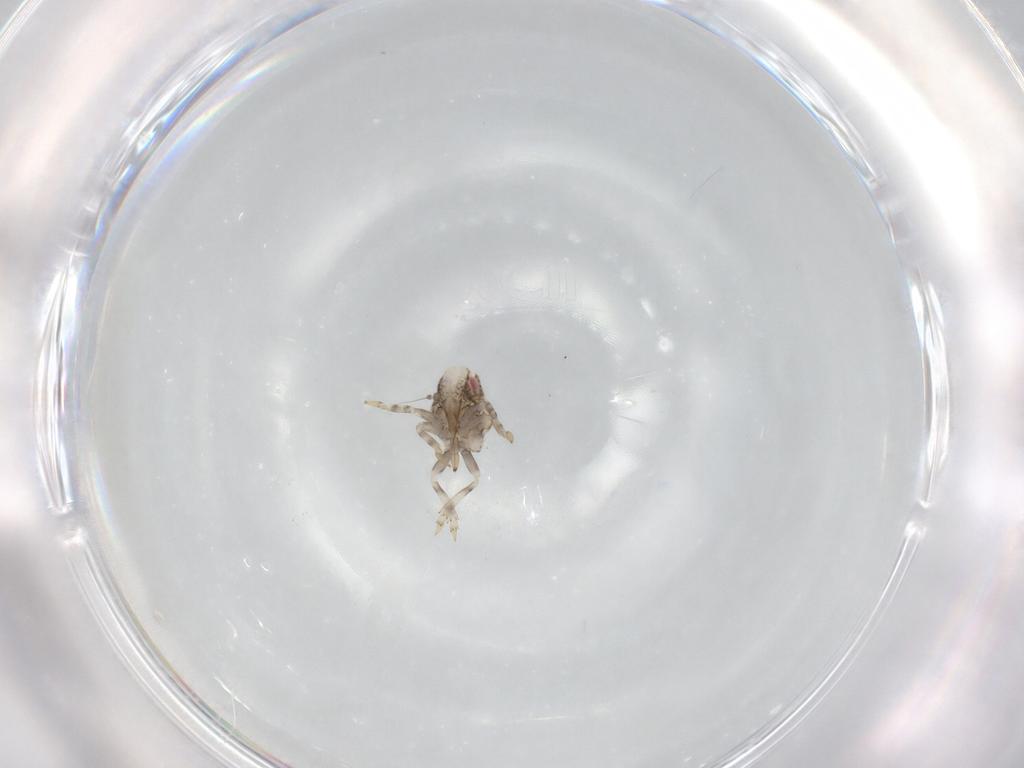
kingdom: Animalia
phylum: Arthropoda
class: Insecta
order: Hemiptera
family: Acanaloniidae
